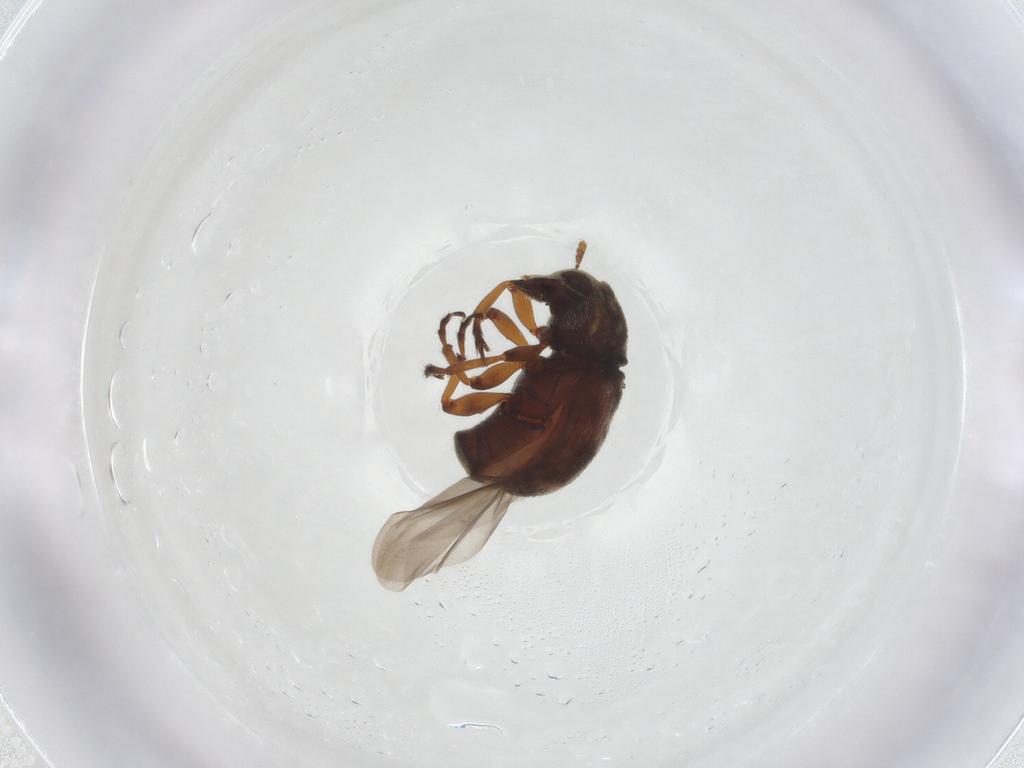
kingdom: Animalia
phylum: Arthropoda
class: Insecta
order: Coleoptera
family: Anthribidae
